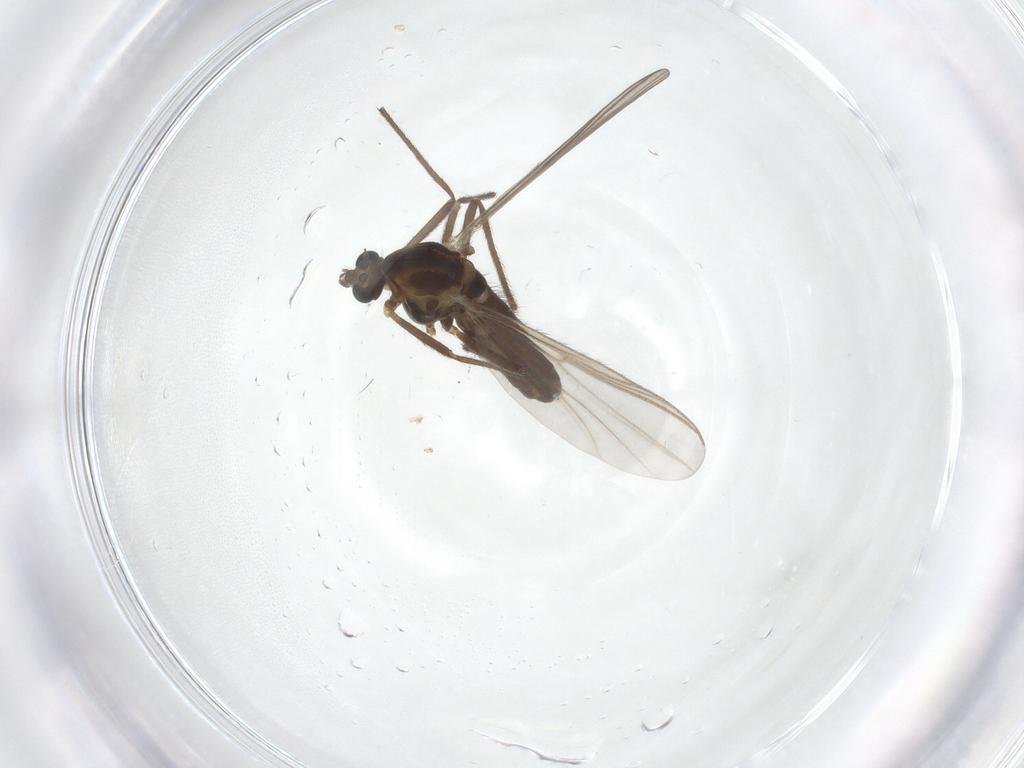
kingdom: Animalia
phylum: Arthropoda
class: Insecta
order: Diptera
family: Chironomidae
